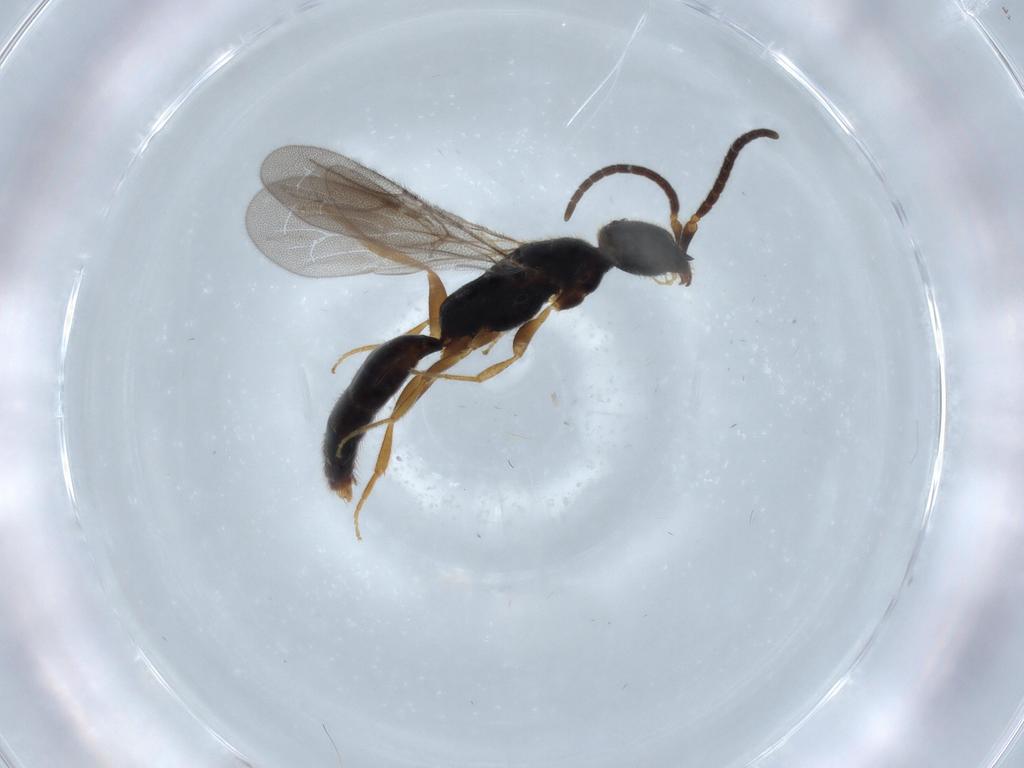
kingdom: Animalia
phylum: Arthropoda
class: Insecta
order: Hymenoptera
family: Bethylidae
